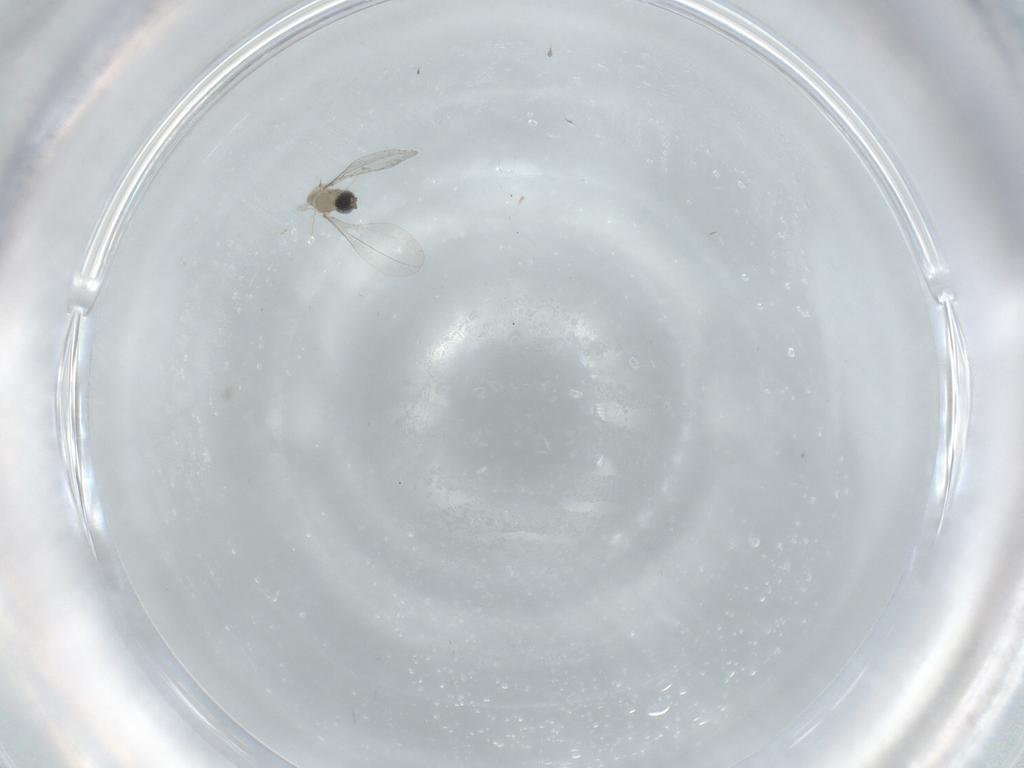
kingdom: Animalia
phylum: Arthropoda
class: Insecta
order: Diptera
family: Cecidomyiidae
